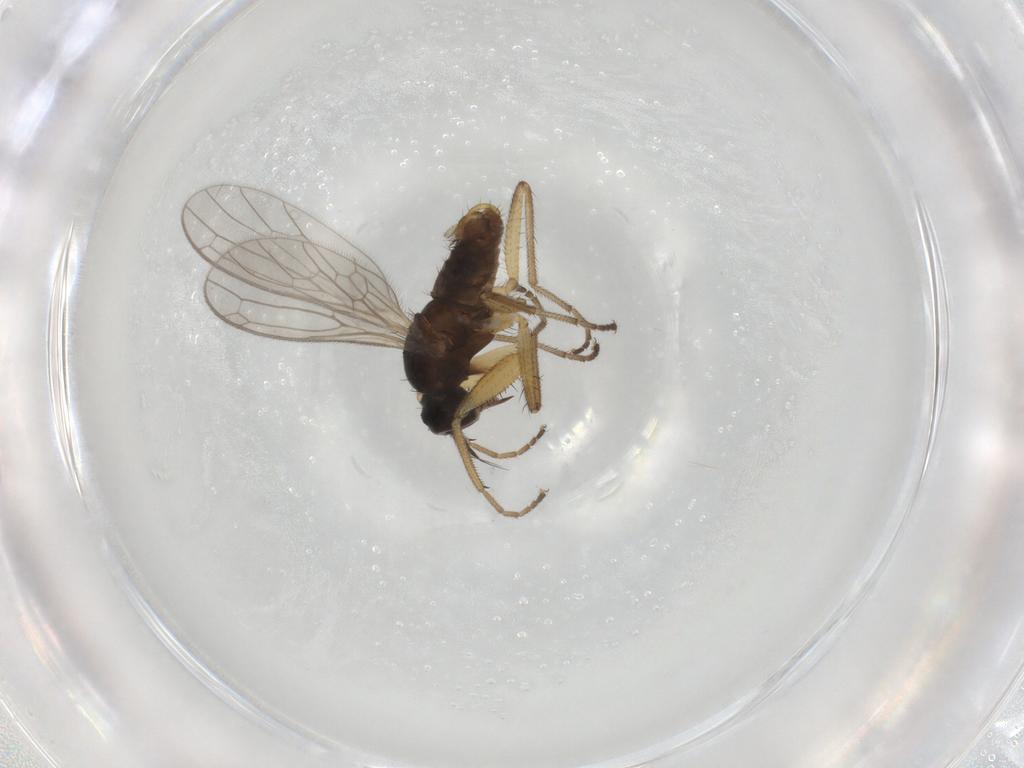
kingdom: Animalia
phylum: Arthropoda
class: Insecta
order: Diptera
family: Empididae
